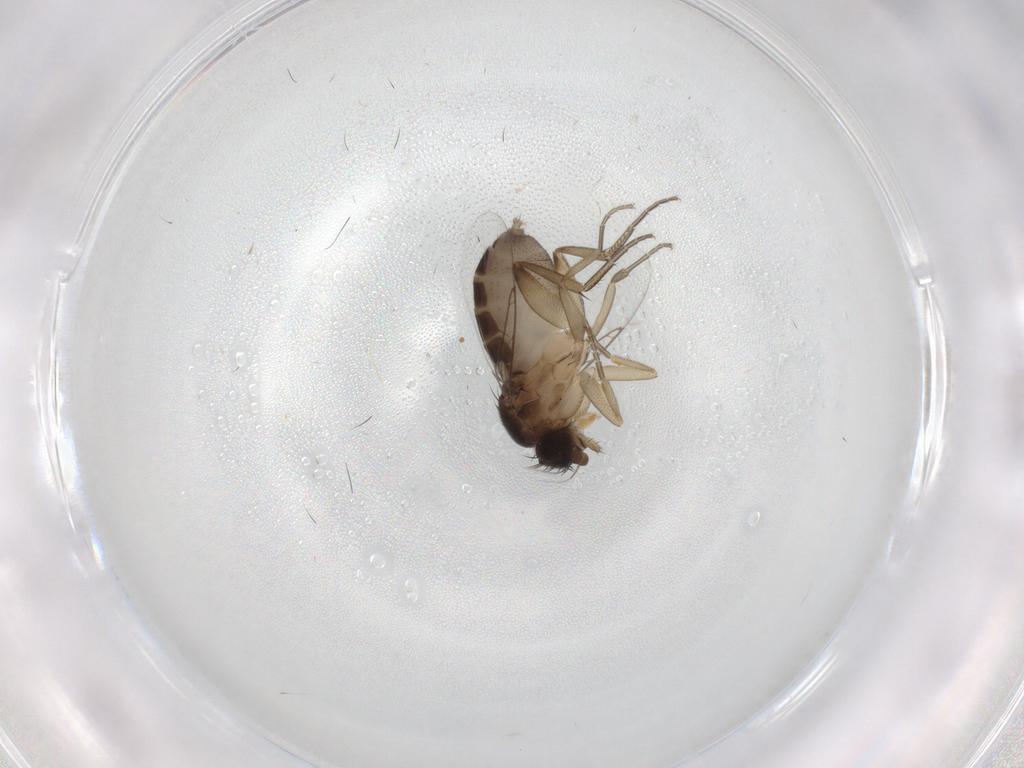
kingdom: Animalia
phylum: Arthropoda
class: Insecta
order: Diptera
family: Phoridae
